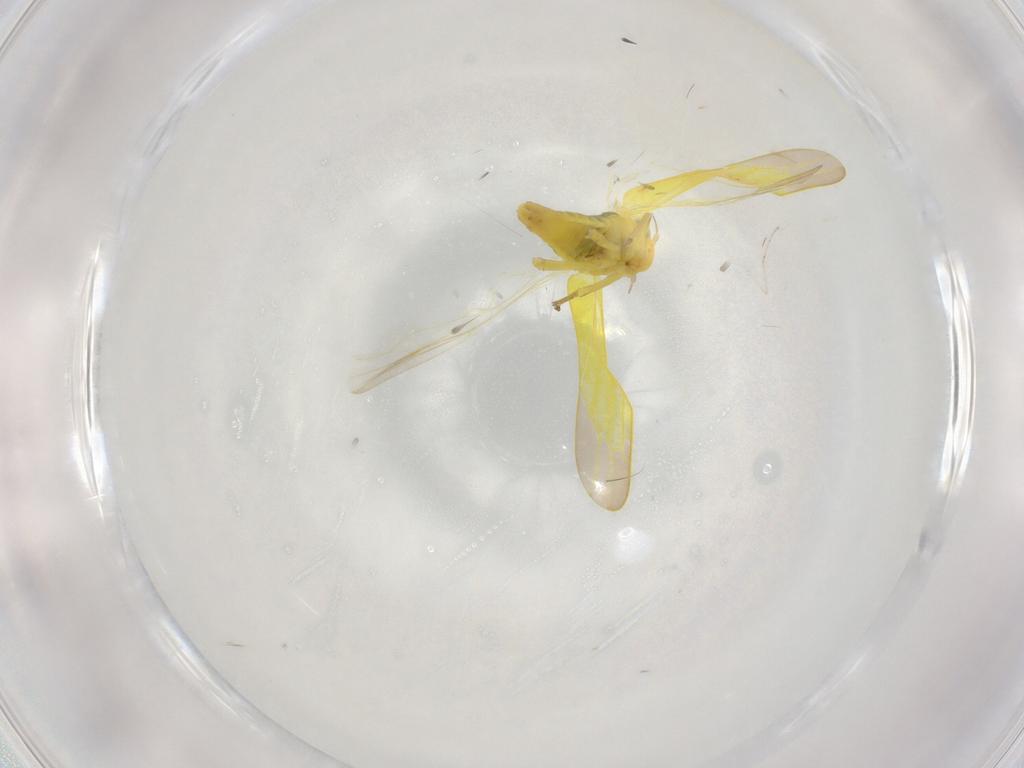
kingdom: Animalia
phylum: Arthropoda
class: Insecta
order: Hemiptera
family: Cicadellidae
